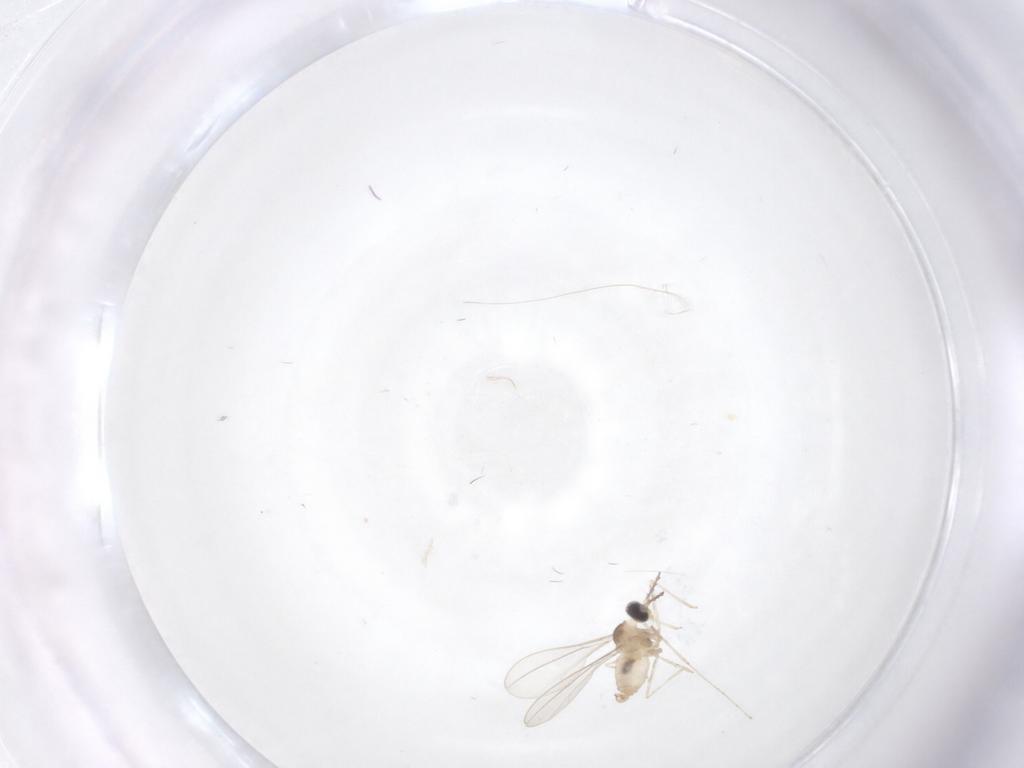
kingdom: Animalia
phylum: Arthropoda
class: Insecta
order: Diptera
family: Cecidomyiidae
